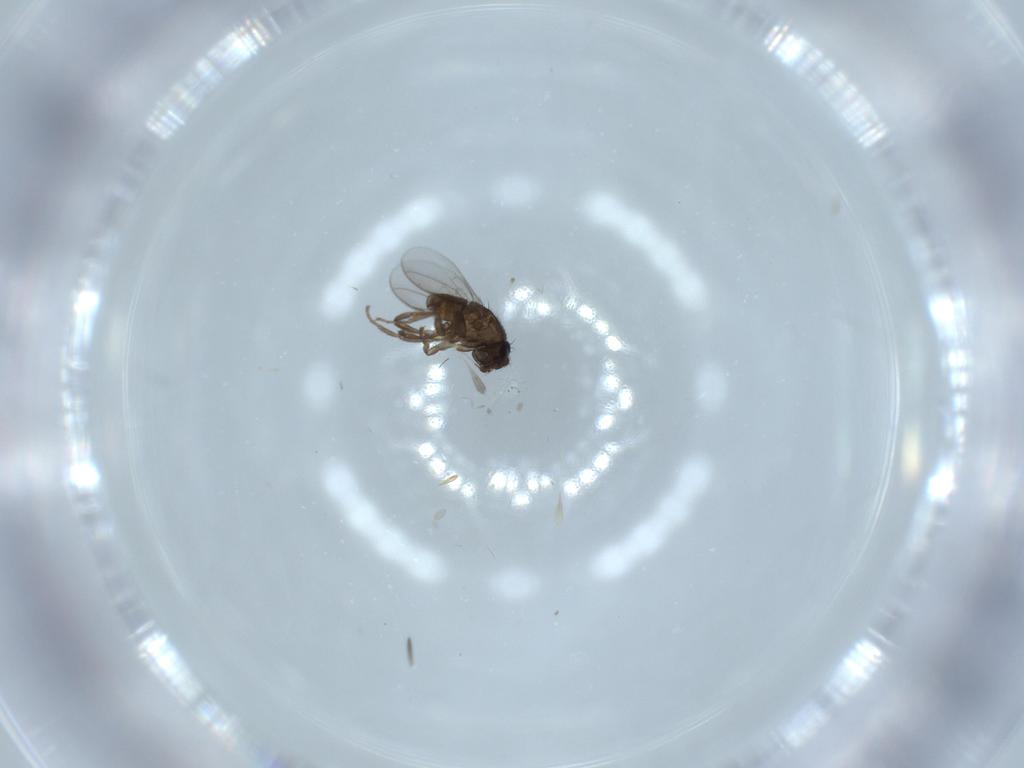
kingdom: Animalia
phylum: Arthropoda
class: Insecta
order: Diptera
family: Sphaeroceridae
